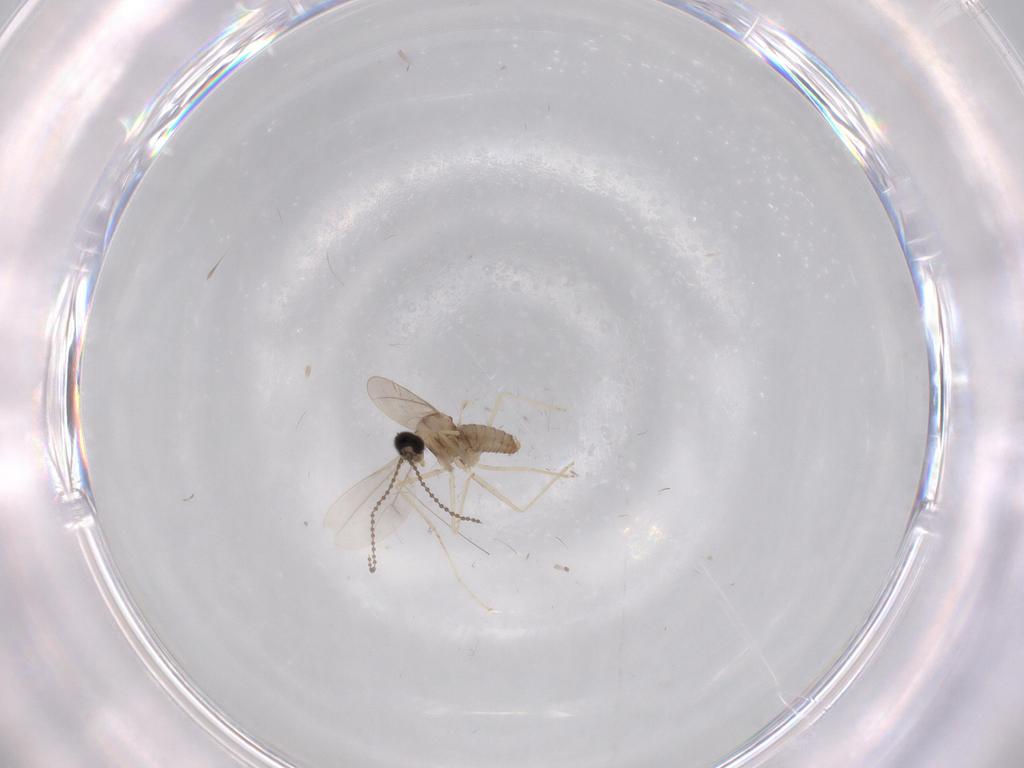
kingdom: Animalia
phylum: Arthropoda
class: Insecta
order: Diptera
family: Cecidomyiidae
